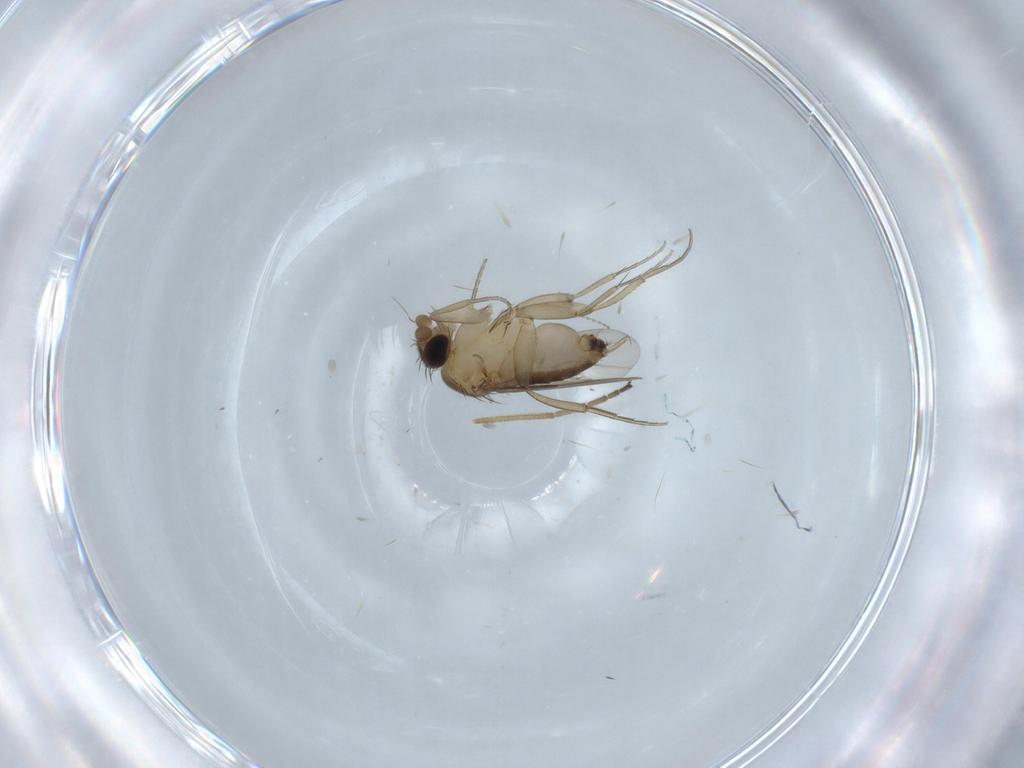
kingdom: Animalia
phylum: Arthropoda
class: Insecta
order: Diptera
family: Cecidomyiidae
